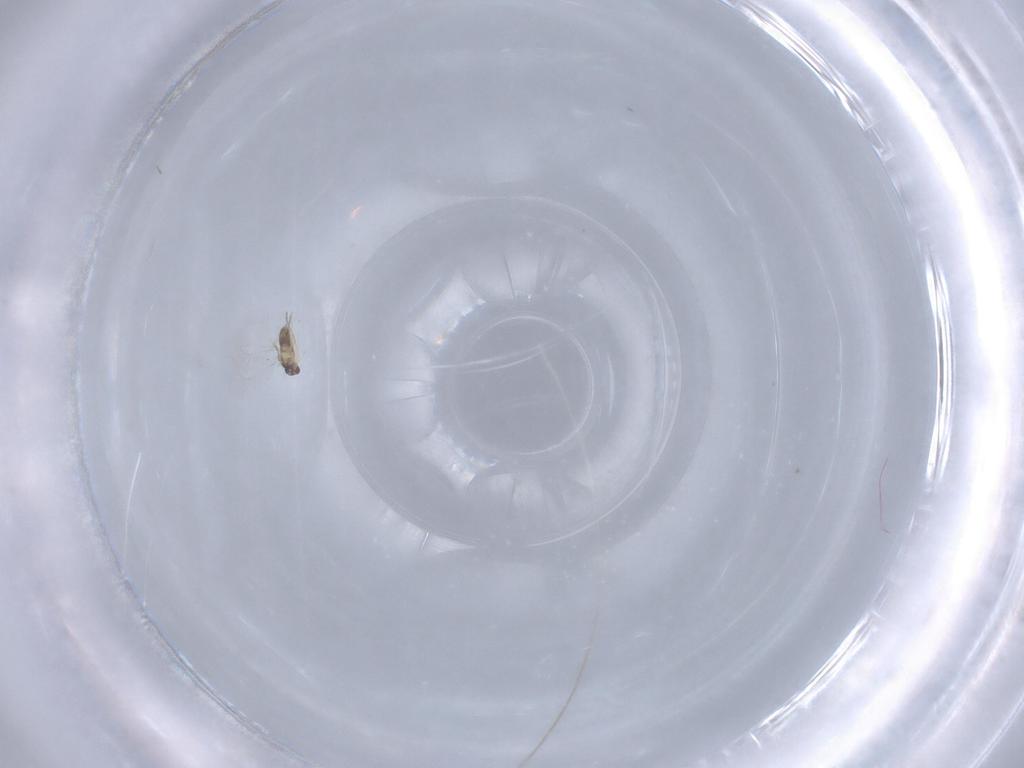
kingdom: Animalia
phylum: Arthropoda
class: Insecta
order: Hymenoptera
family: Mymaridae
